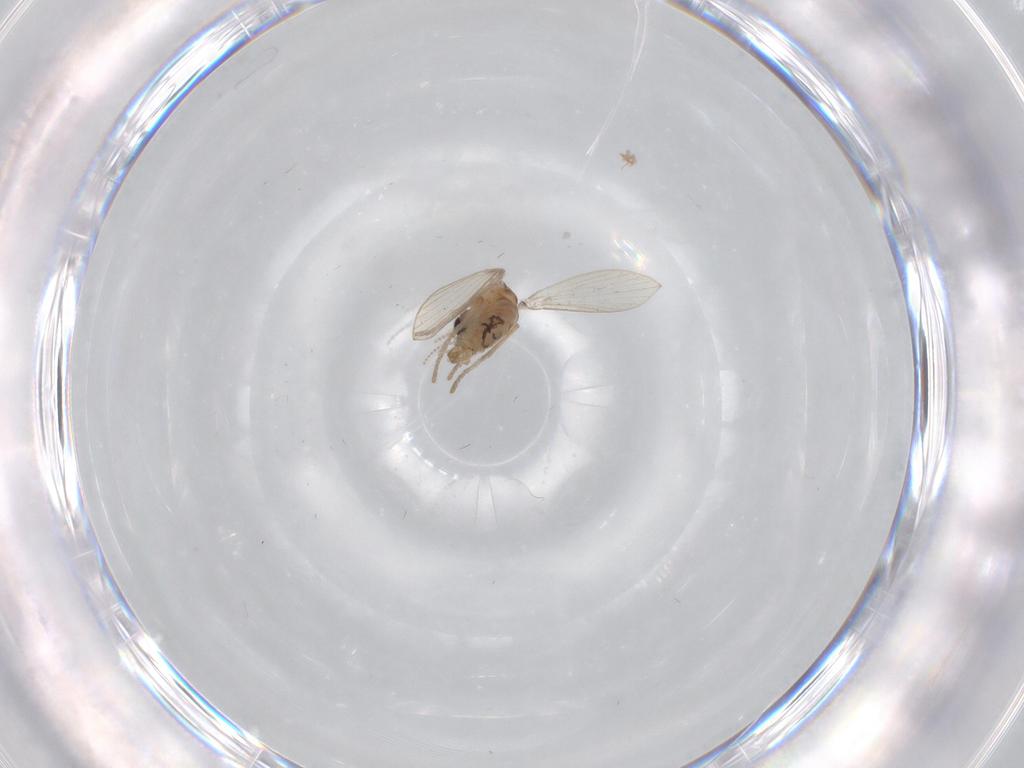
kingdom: Animalia
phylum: Arthropoda
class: Insecta
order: Diptera
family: Psychodidae
